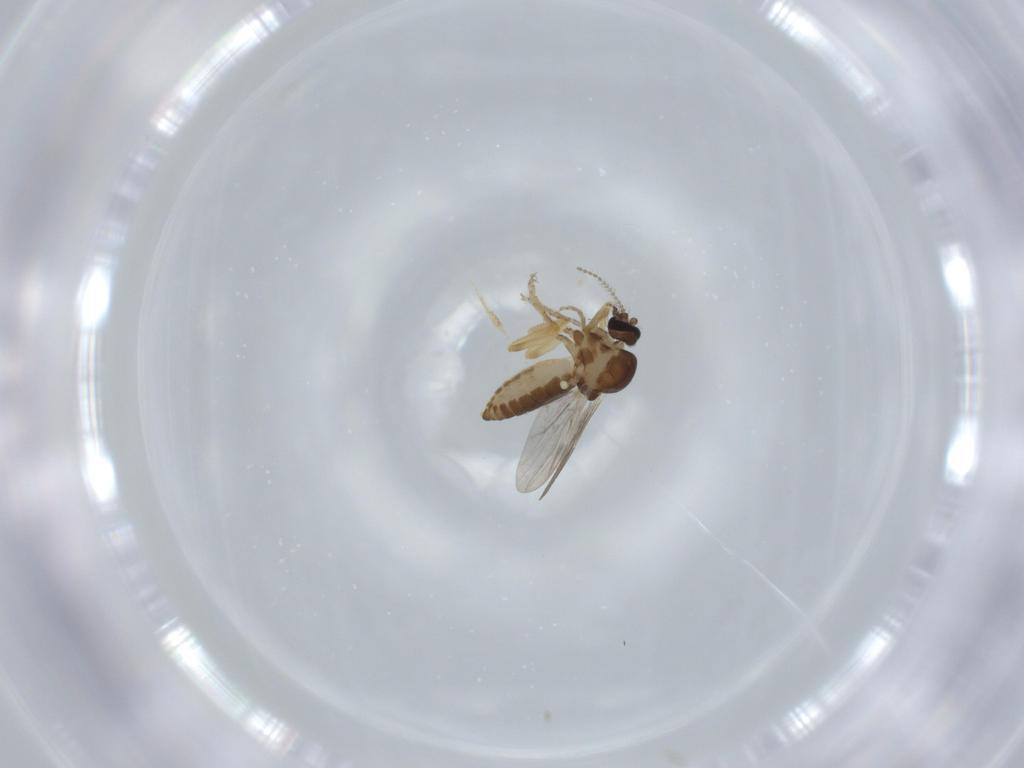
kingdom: Animalia
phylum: Arthropoda
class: Insecta
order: Diptera
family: Ceratopogonidae
